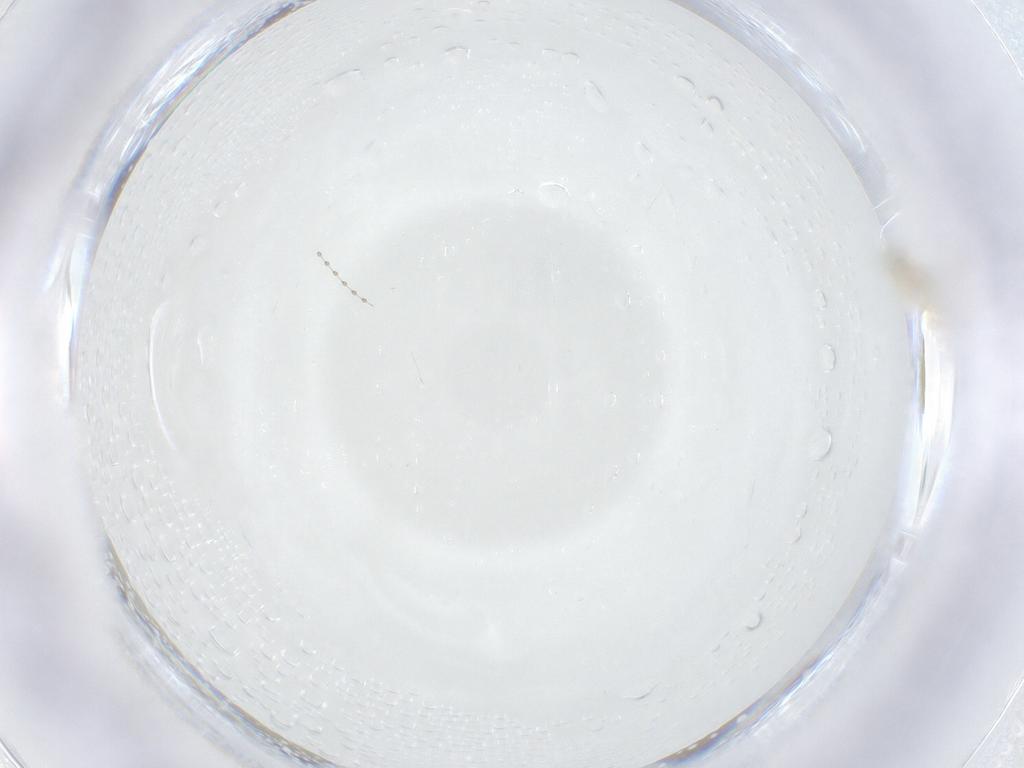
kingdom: Animalia
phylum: Arthropoda
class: Insecta
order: Diptera
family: Cecidomyiidae
